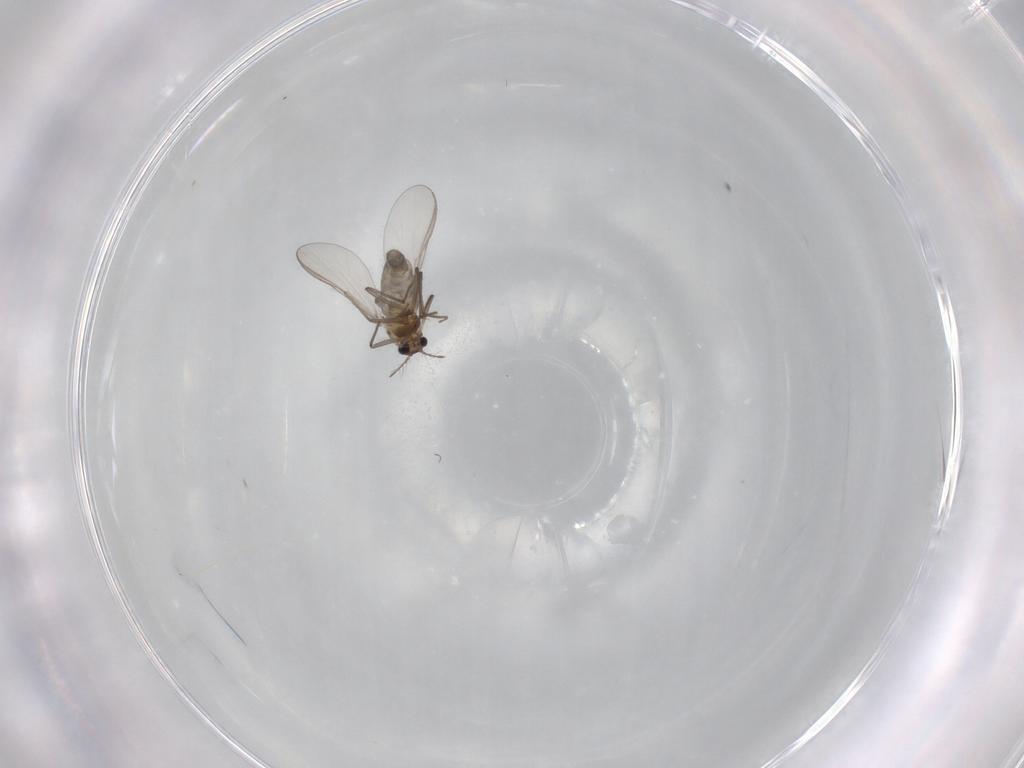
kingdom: Animalia
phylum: Arthropoda
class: Insecta
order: Diptera
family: Chironomidae
